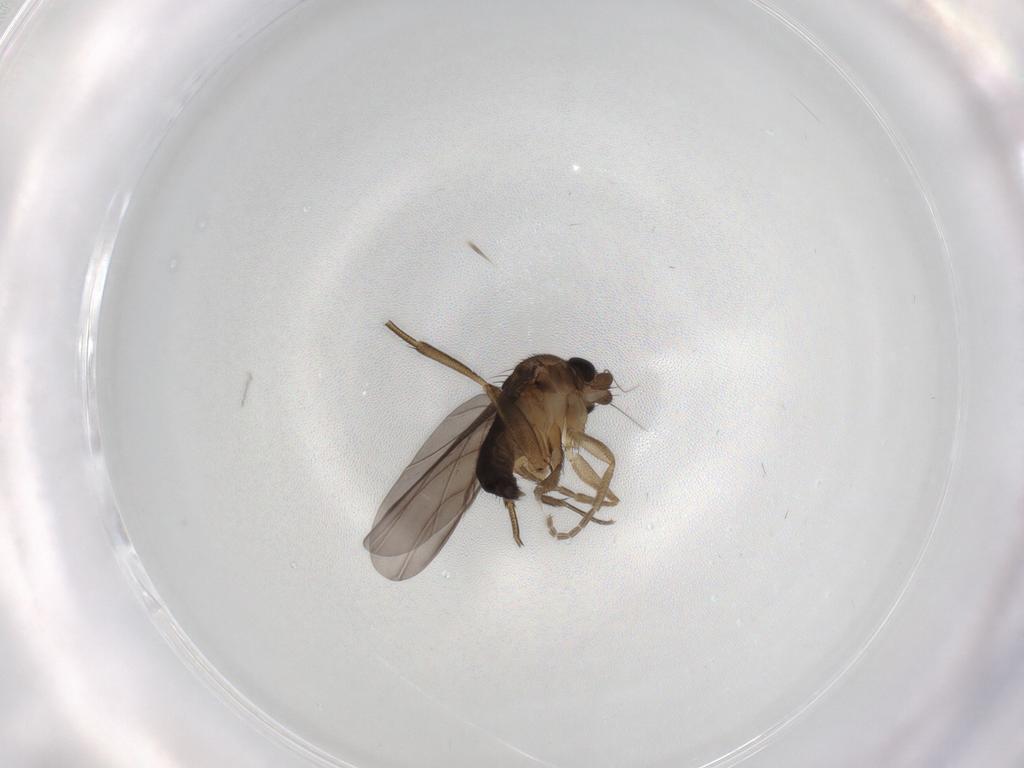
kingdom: Animalia
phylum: Arthropoda
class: Insecta
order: Diptera
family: Phoridae
